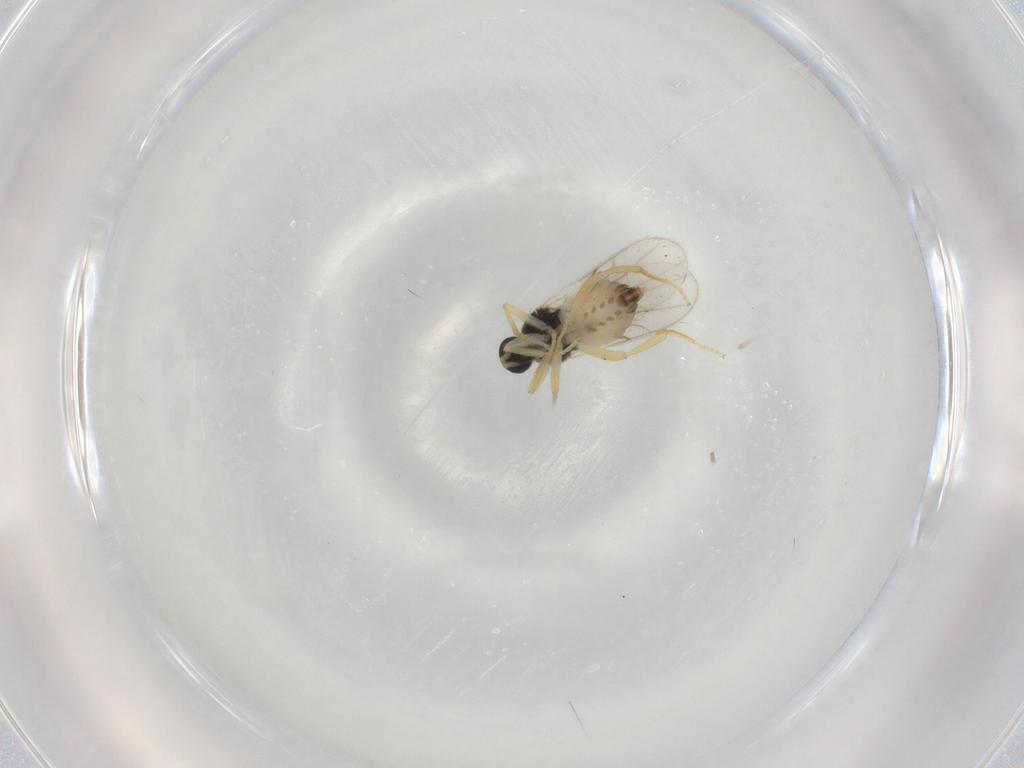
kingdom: Animalia
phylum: Arthropoda
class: Insecta
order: Diptera
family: Hybotidae
